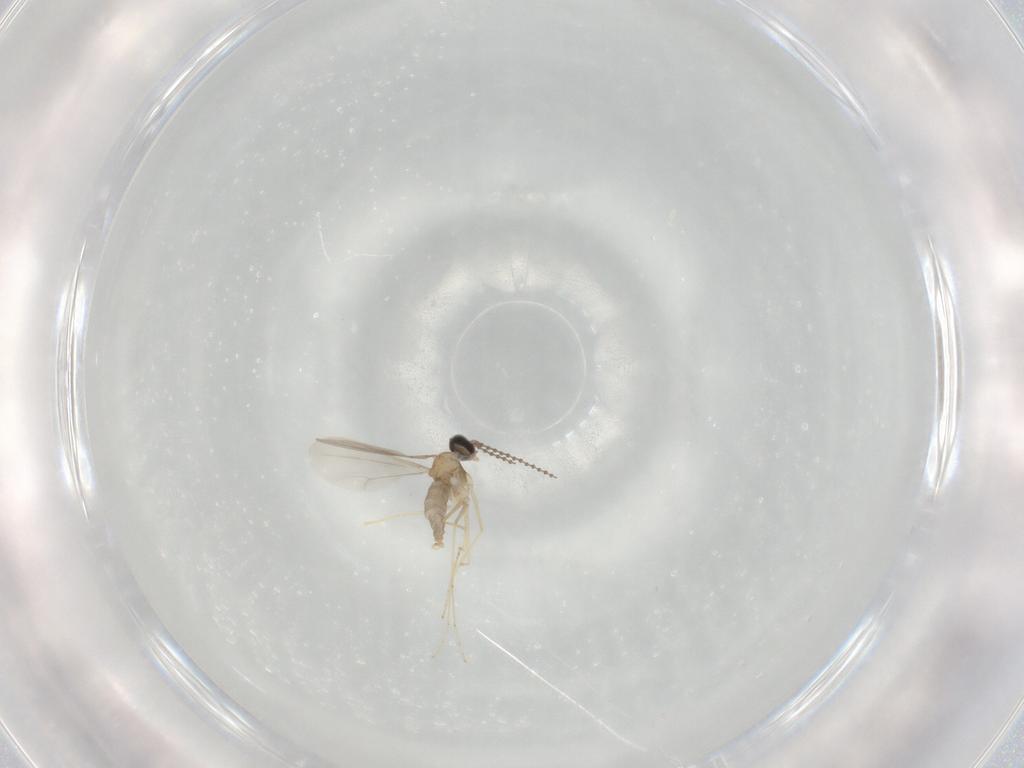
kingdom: Animalia
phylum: Arthropoda
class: Insecta
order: Diptera
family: Cecidomyiidae
